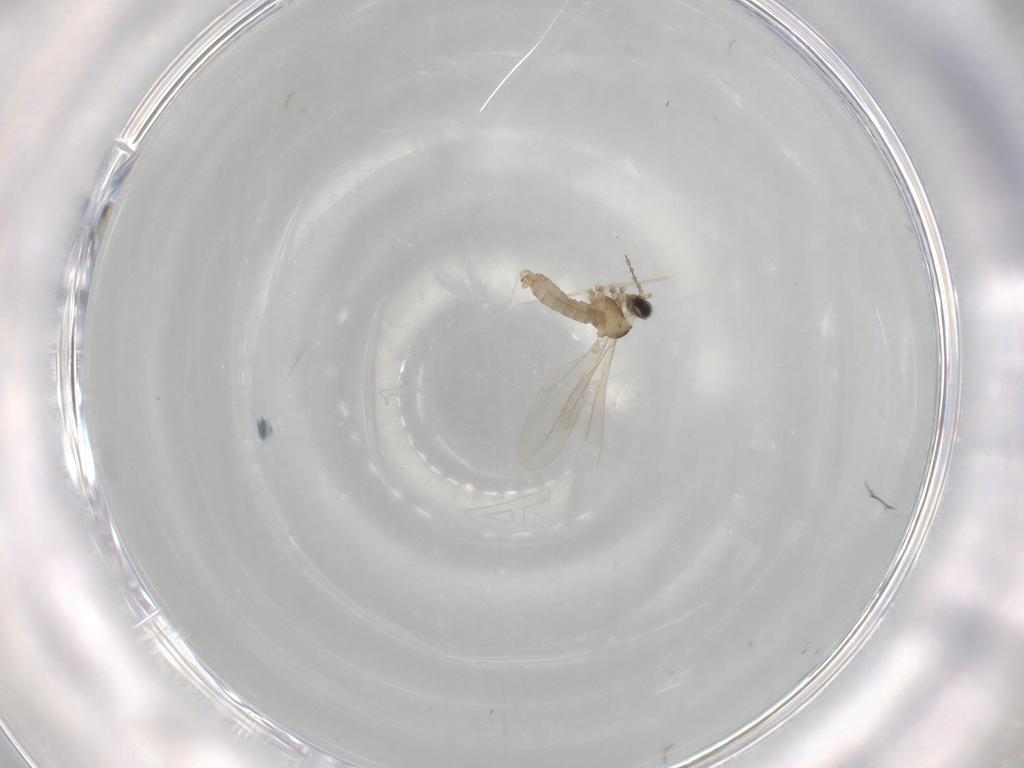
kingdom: Animalia
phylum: Arthropoda
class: Insecta
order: Diptera
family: Cecidomyiidae
